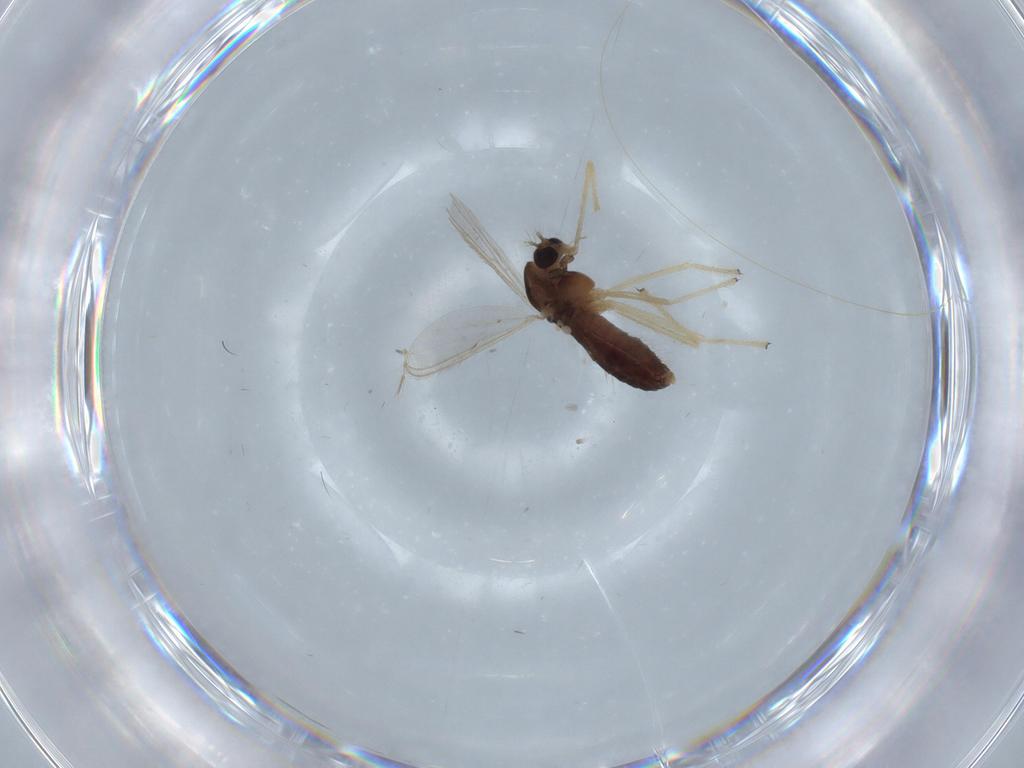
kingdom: Animalia
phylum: Arthropoda
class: Insecta
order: Diptera
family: Chironomidae
